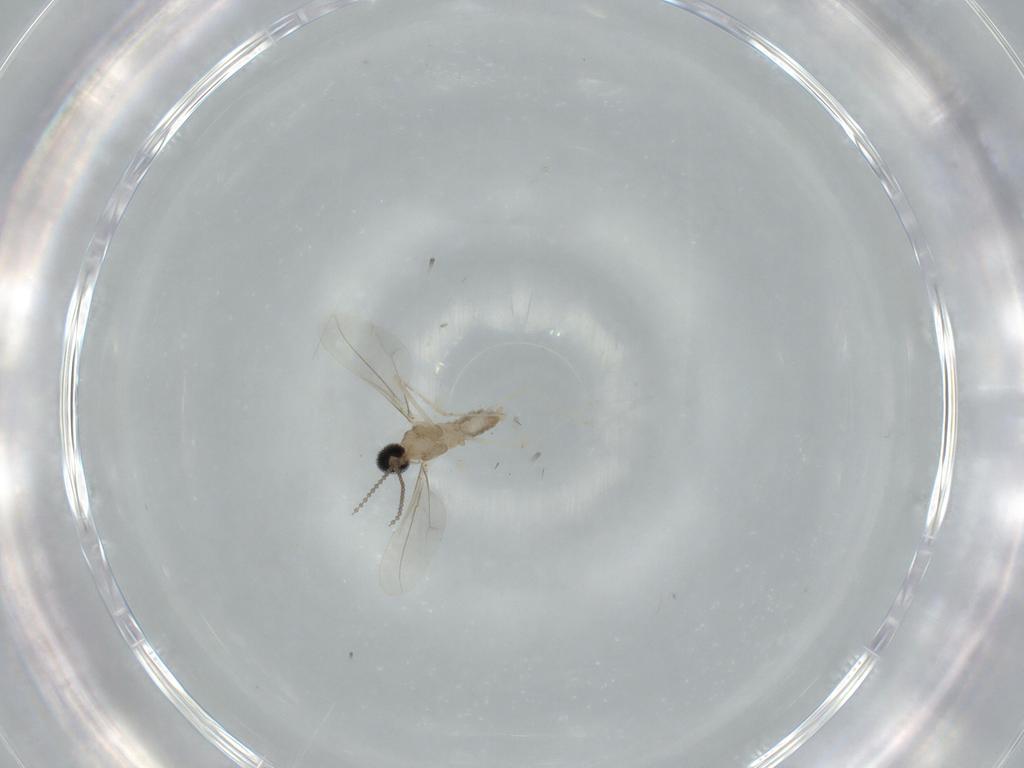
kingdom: Animalia
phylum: Arthropoda
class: Insecta
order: Diptera
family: Cecidomyiidae
